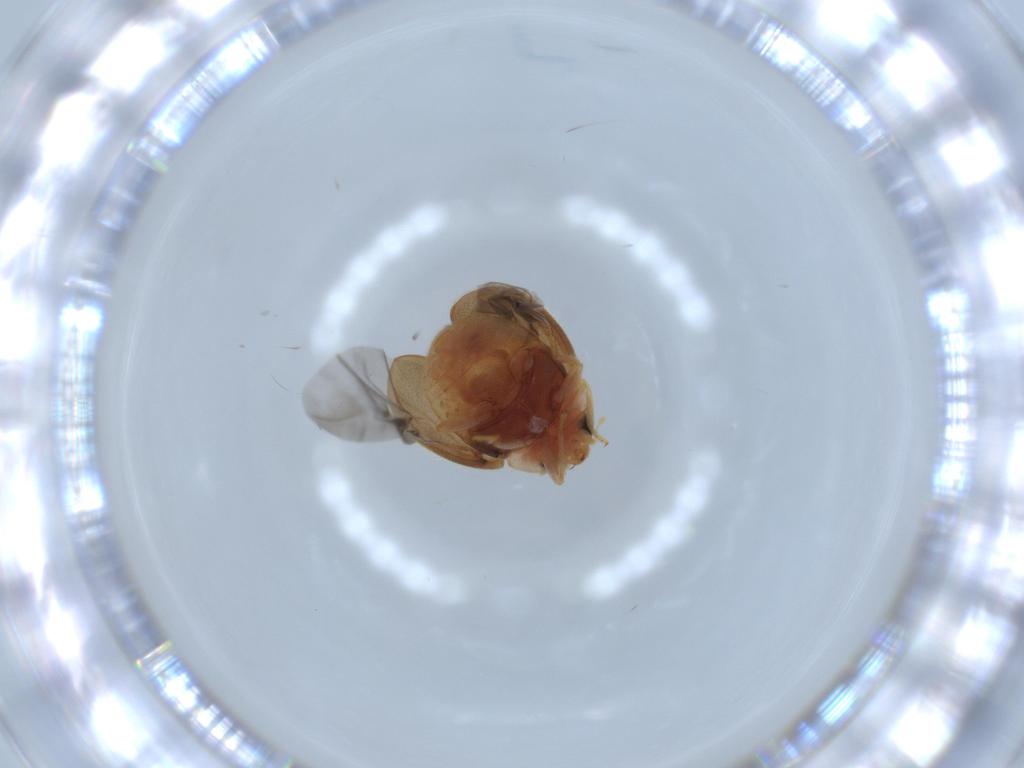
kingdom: Animalia
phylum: Arthropoda
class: Insecta
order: Coleoptera
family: Coccinellidae
